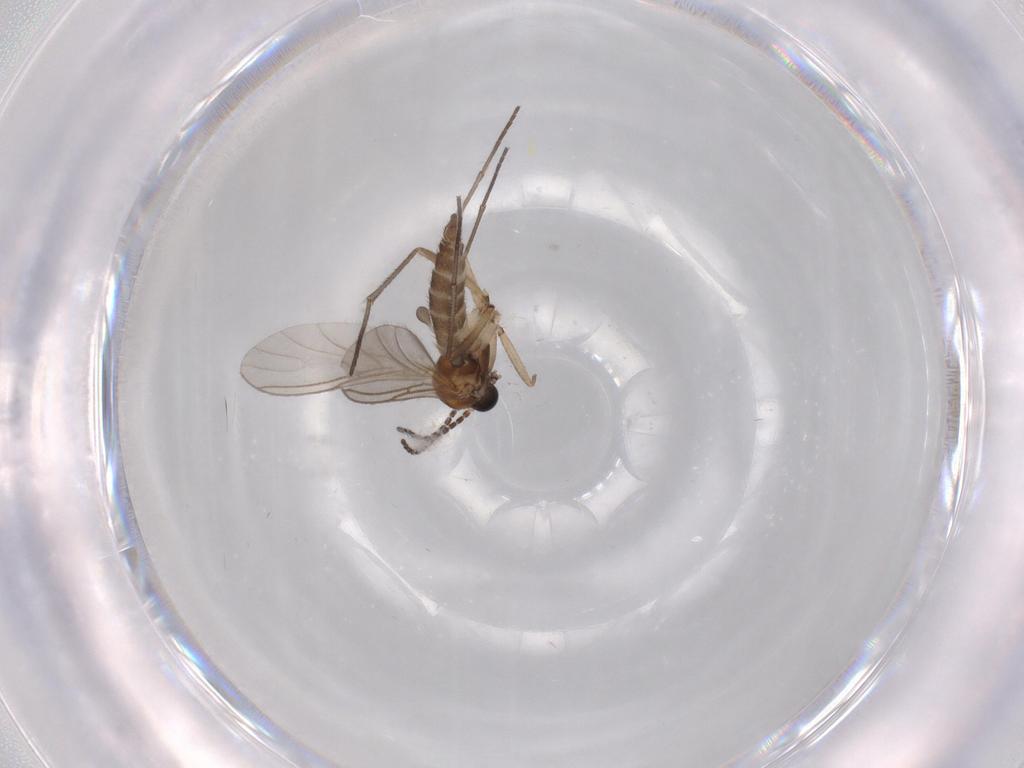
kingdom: Animalia
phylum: Arthropoda
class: Insecta
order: Diptera
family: Sciaridae
